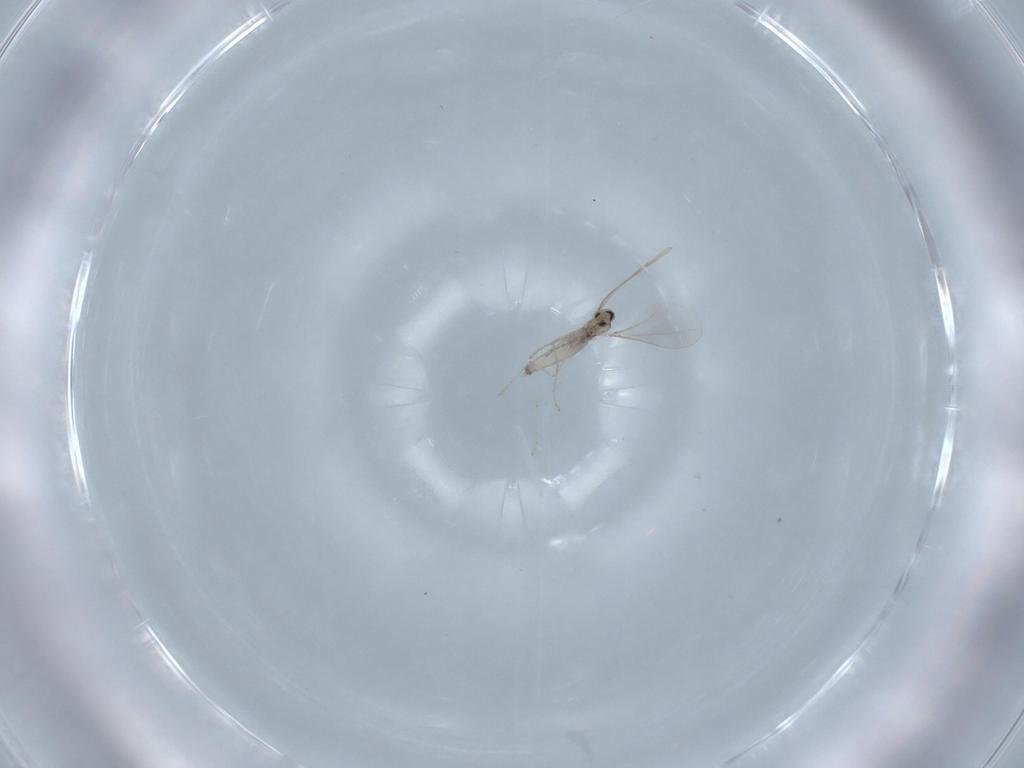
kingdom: Animalia
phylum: Arthropoda
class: Insecta
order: Diptera
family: Cecidomyiidae
